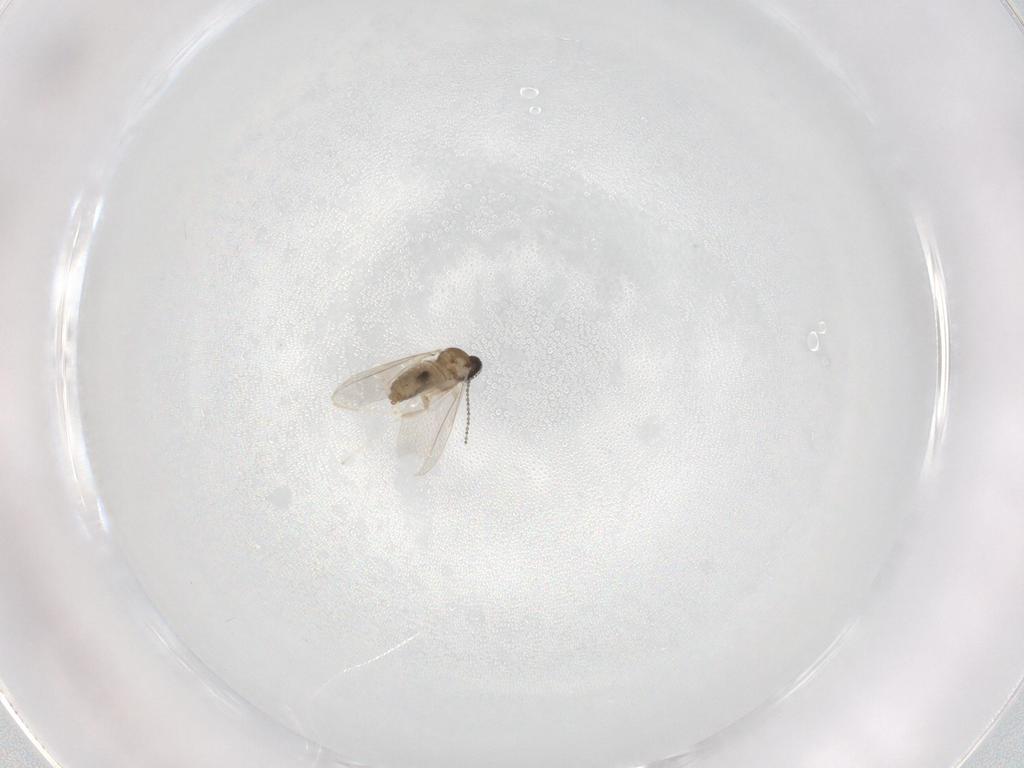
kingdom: Animalia
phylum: Arthropoda
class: Insecta
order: Diptera
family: Cecidomyiidae
